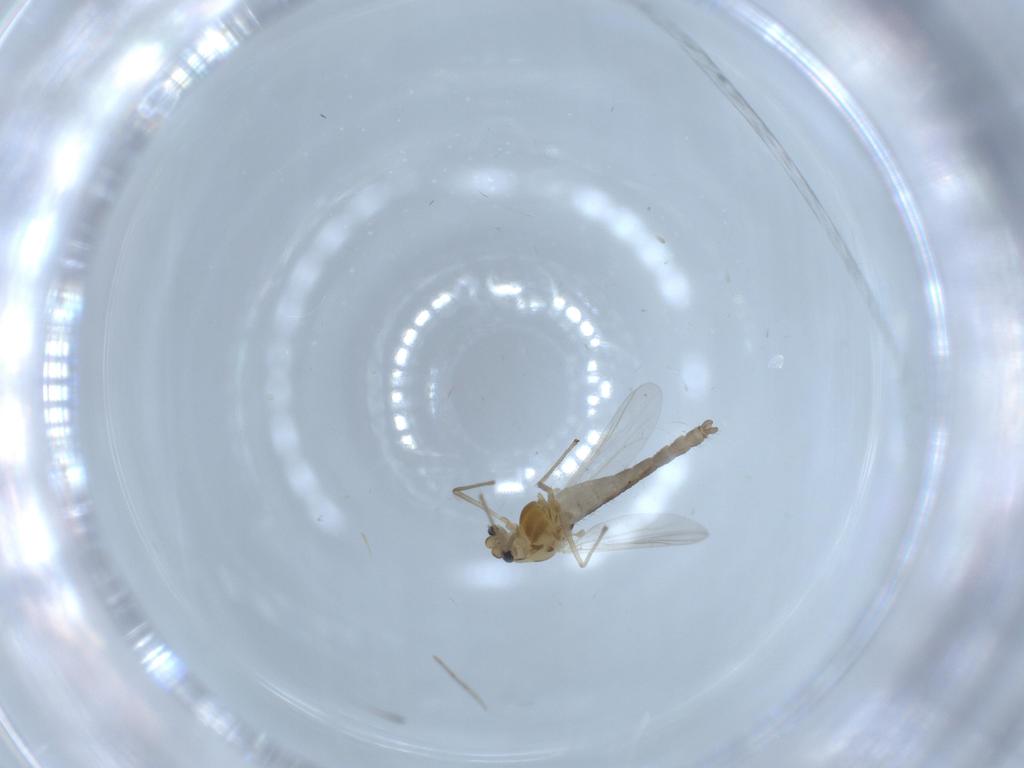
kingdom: Animalia
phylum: Arthropoda
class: Insecta
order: Diptera
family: Chironomidae
